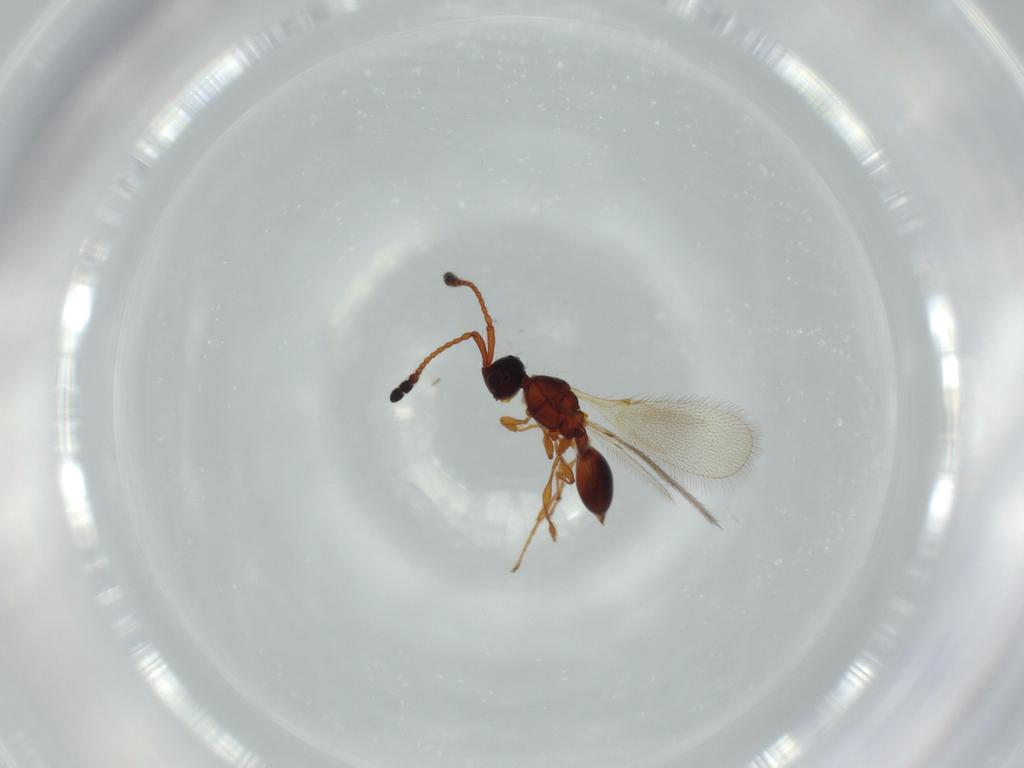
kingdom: Animalia
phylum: Arthropoda
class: Insecta
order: Hymenoptera
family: Diapriidae
